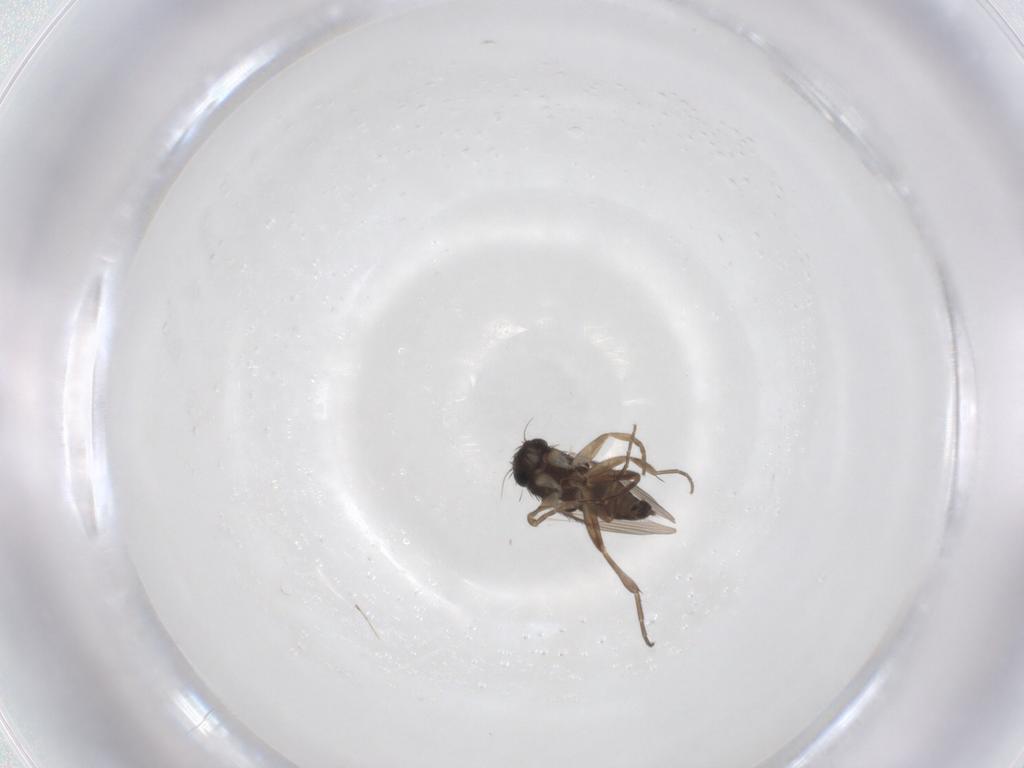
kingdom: Animalia
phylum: Arthropoda
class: Insecta
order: Diptera
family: Phoridae
